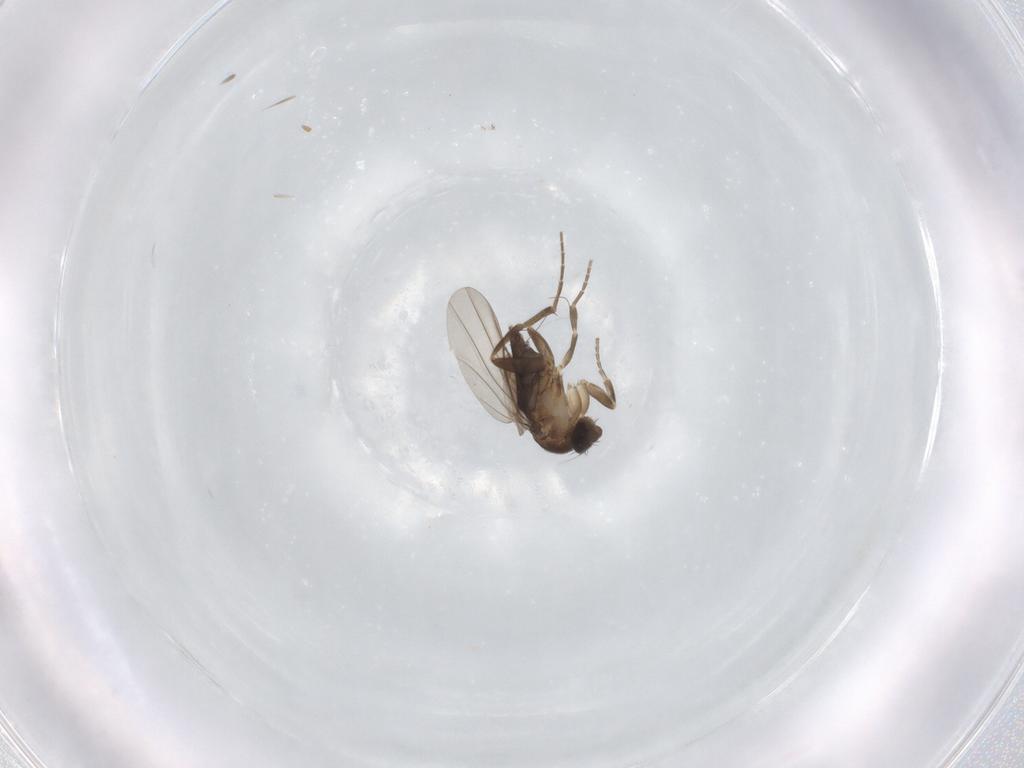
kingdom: Animalia
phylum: Arthropoda
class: Insecta
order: Diptera
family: Phoridae
